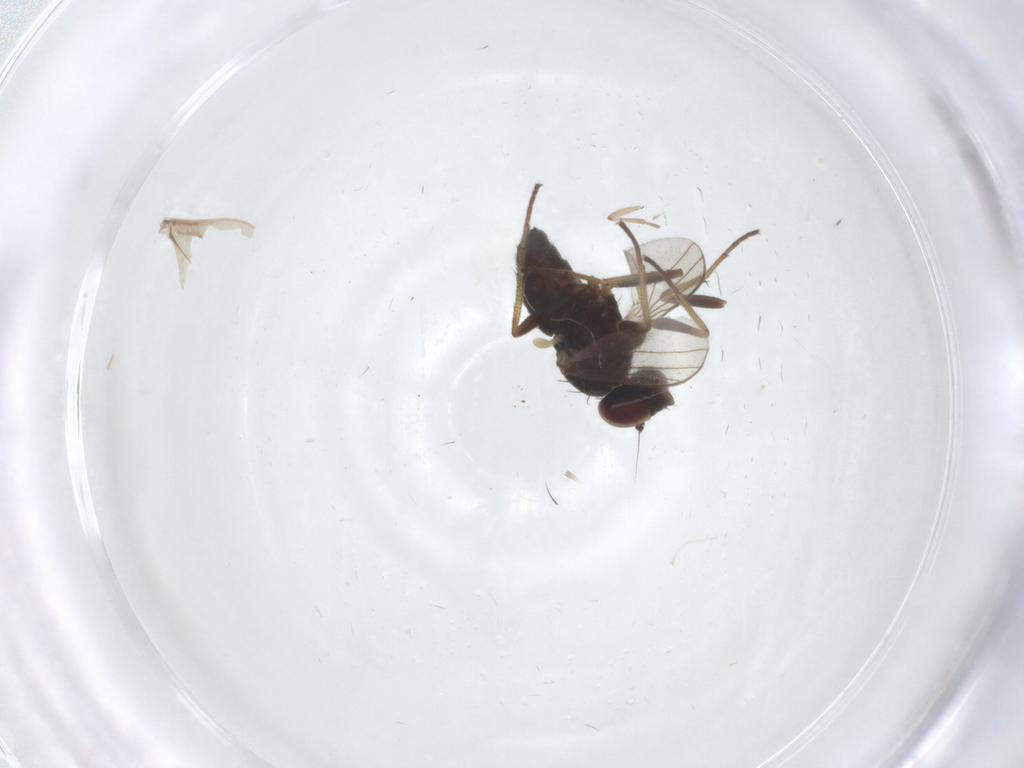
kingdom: Animalia
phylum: Arthropoda
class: Insecta
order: Diptera
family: Dolichopodidae
